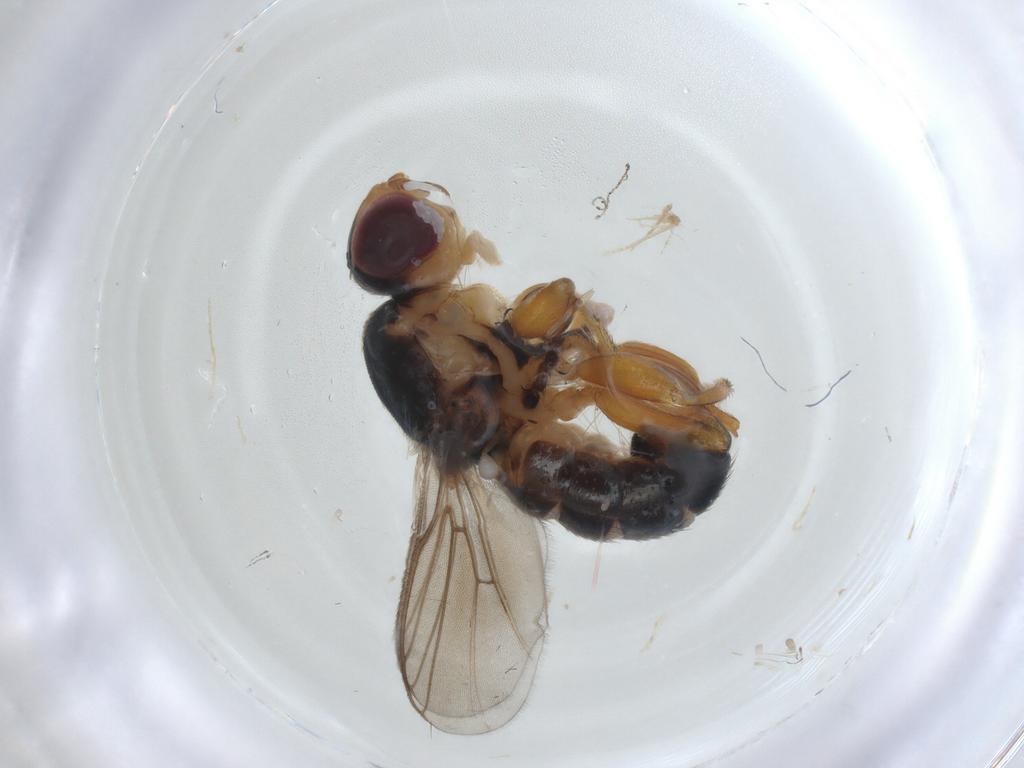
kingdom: Animalia
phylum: Arthropoda
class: Insecta
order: Diptera
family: Chloropidae
